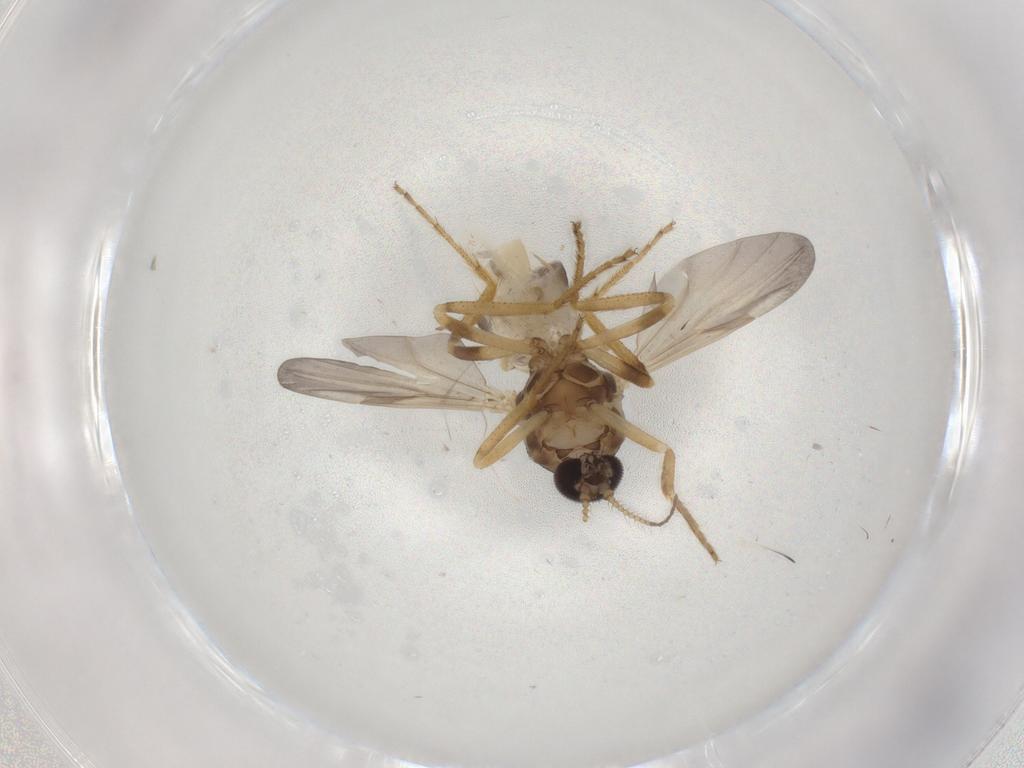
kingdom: Animalia
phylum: Arthropoda
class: Insecta
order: Diptera
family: Ceratopogonidae
